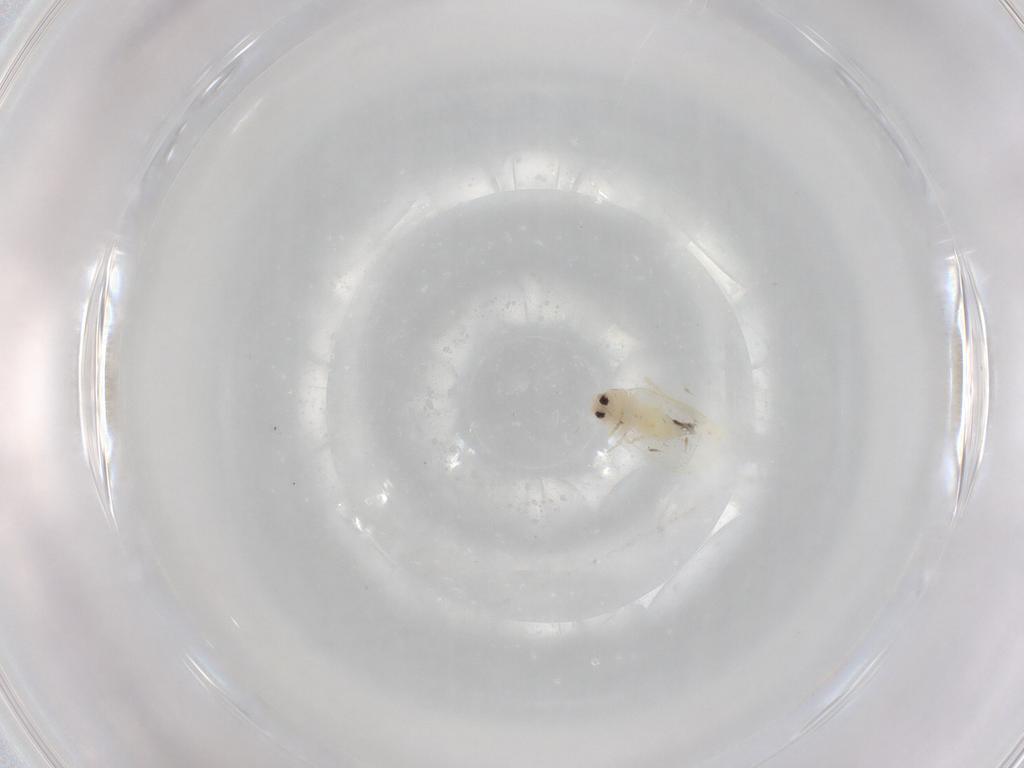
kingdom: Animalia
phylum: Arthropoda
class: Insecta
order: Hemiptera
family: Aleyrodidae
